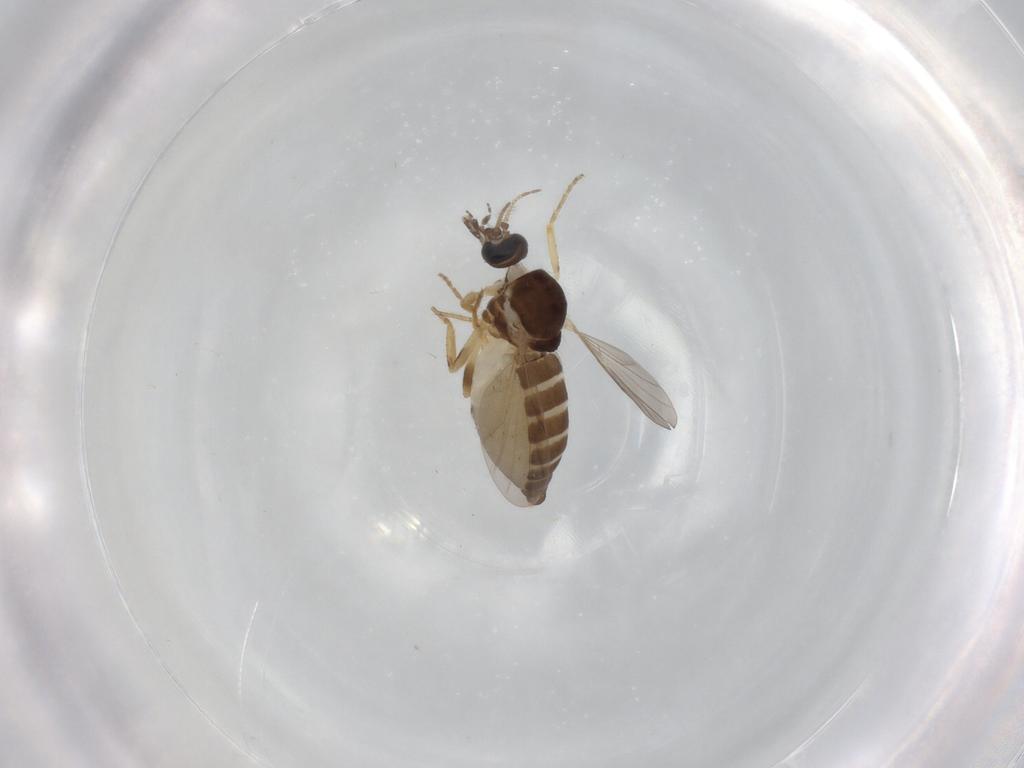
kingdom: Animalia
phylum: Arthropoda
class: Insecta
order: Diptera
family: Ceratopogonidae
